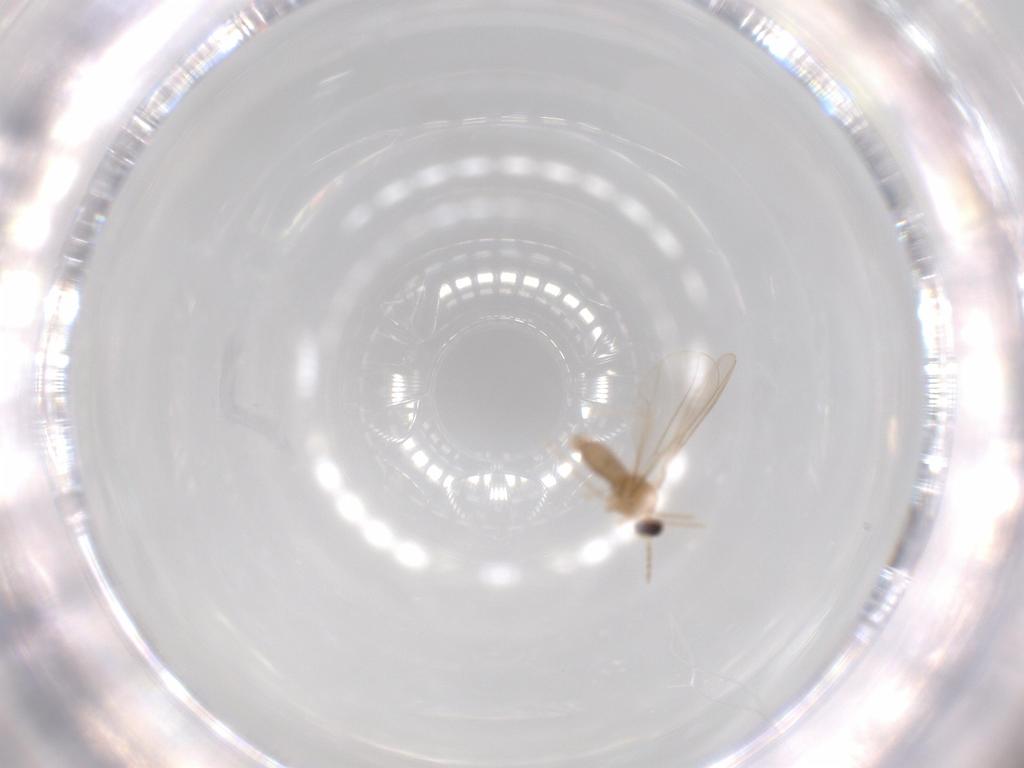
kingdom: Animalia
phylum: Arthropoda
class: Insecta
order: Diptera
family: Cecidomyiidae
